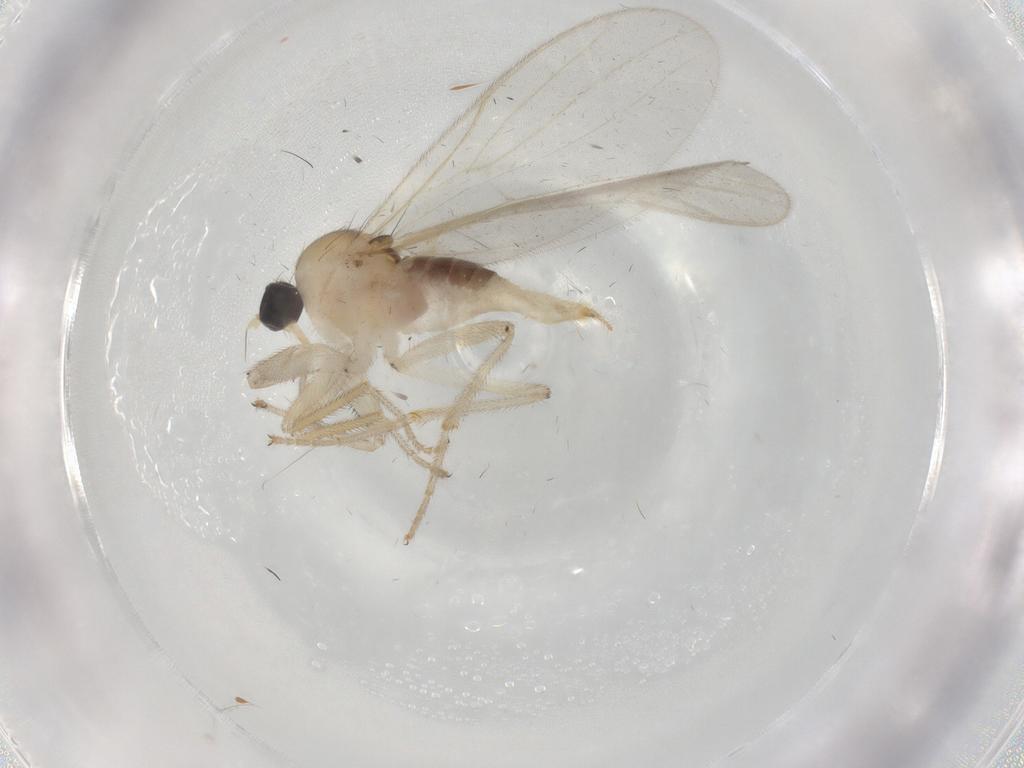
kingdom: Animalia
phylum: Arthropoda
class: Insecta
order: Diptera
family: Hybotidae
